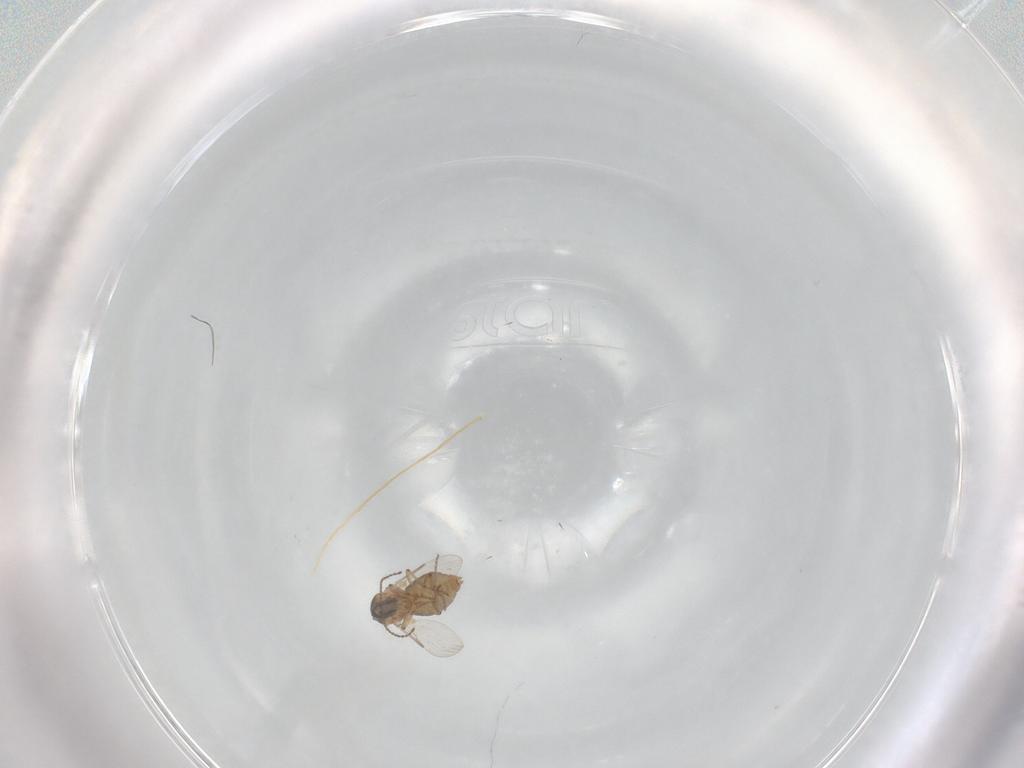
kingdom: Animalia
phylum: Arthropoda
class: Insecta
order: Diptera
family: Ceratopogonidae
